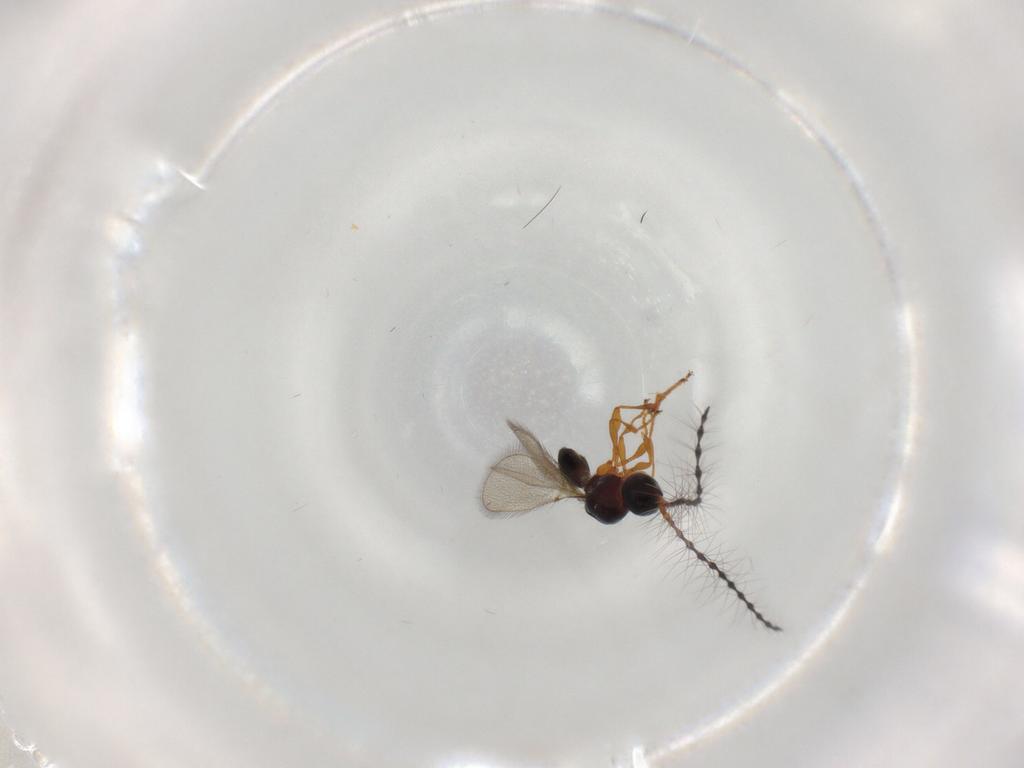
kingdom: Animalia
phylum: Arthropoda
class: Insecta
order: Hymenoptera
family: Diapriidae
